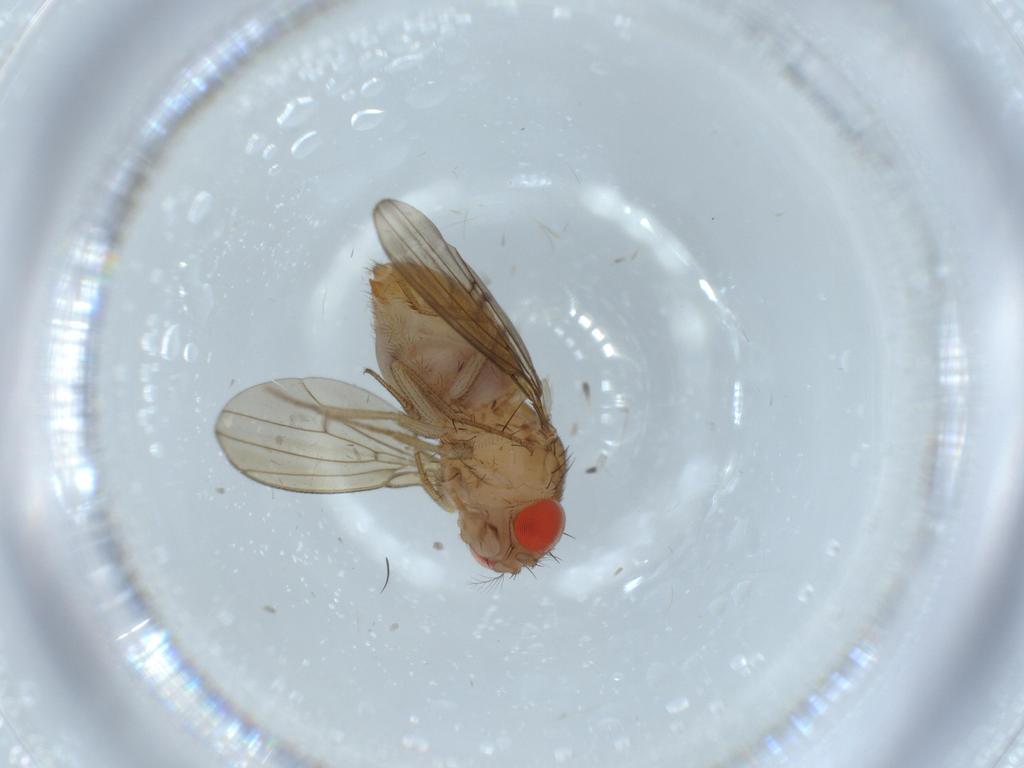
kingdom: Animalia
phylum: Arthropoda
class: Insecta
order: Diptera
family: Drosophilidae
